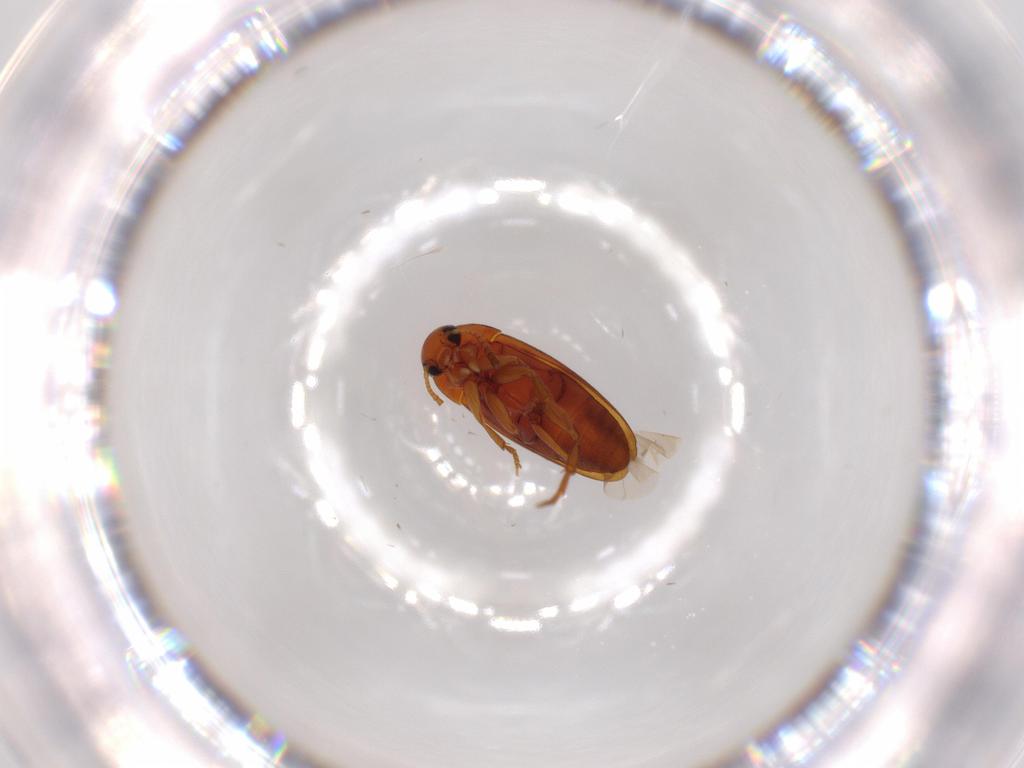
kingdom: Animalia
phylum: Arthropoda
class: Insecta
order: Coleoptera
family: Scraptiidae
